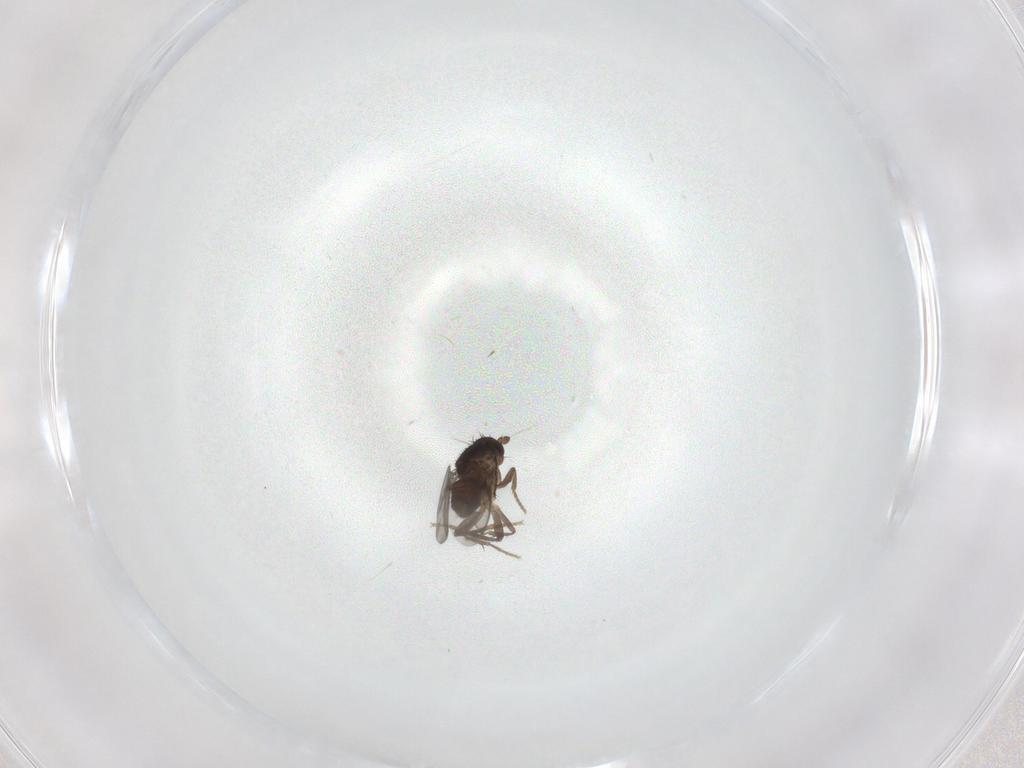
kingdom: Animalia
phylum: Arthropoda
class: Insecta
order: Diptera
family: Sphaeroceridae
